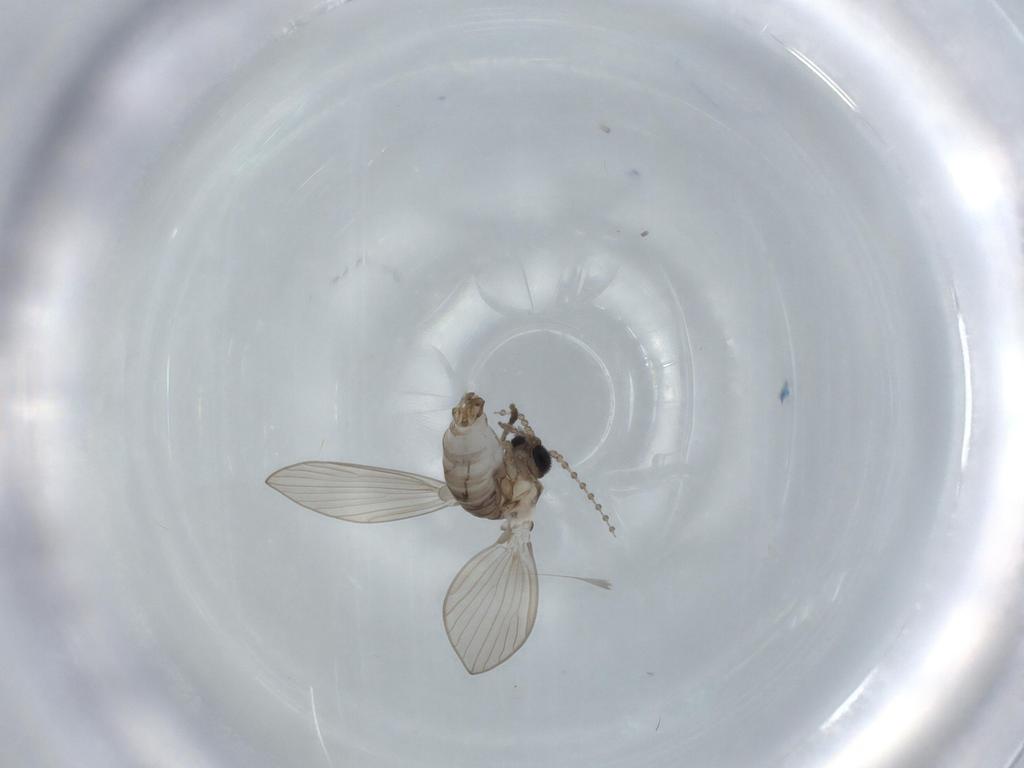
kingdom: Animalia
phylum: Arthropoda
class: Insecta
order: Diptera
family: Psychodidae
